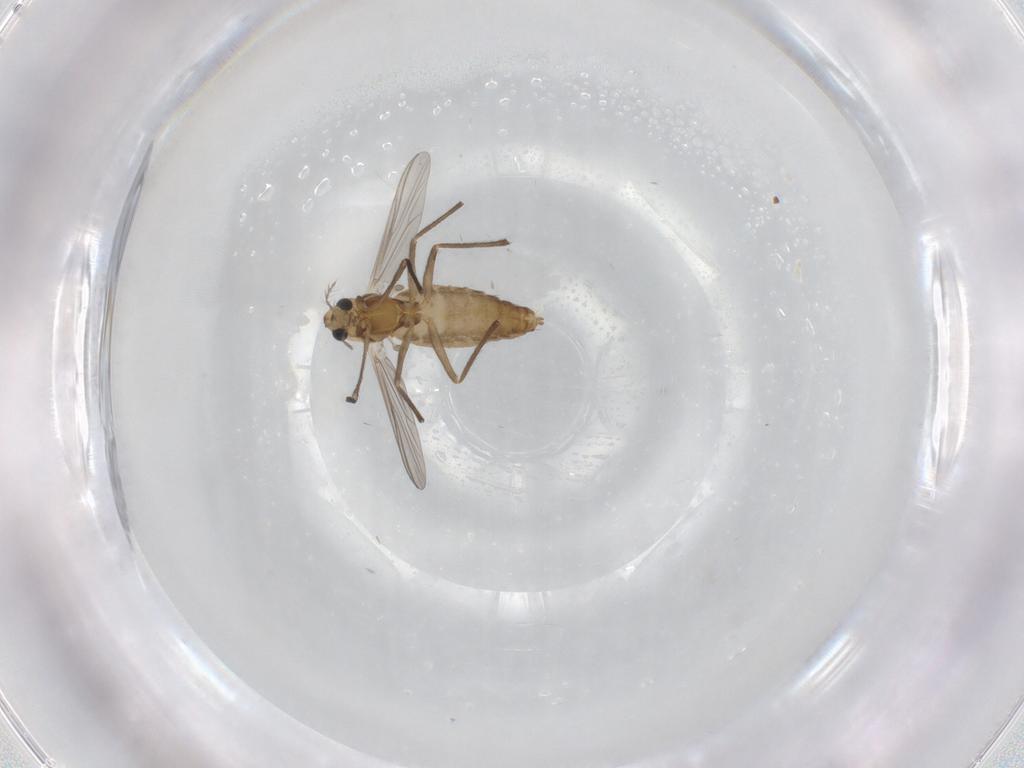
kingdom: Animalia
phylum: Arthropoda
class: Insecta
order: Diptera
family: Chironomidae
